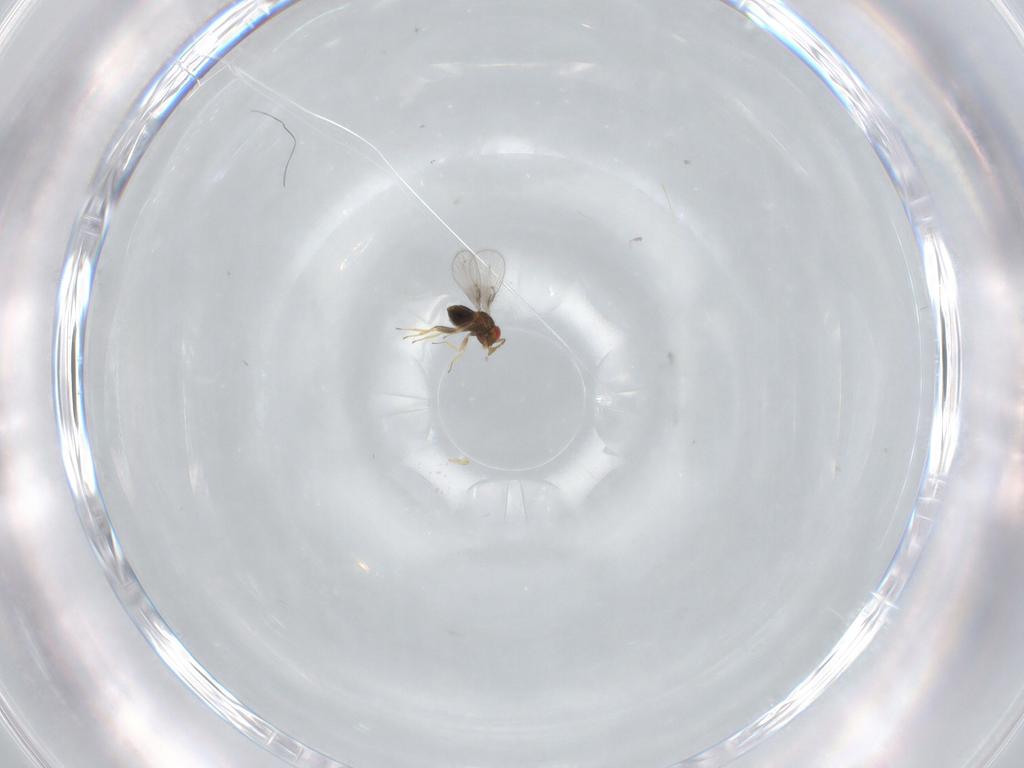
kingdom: Animalia
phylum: Arthropoda
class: Insecta
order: Hymenoptera
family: Trichogrammatidae
